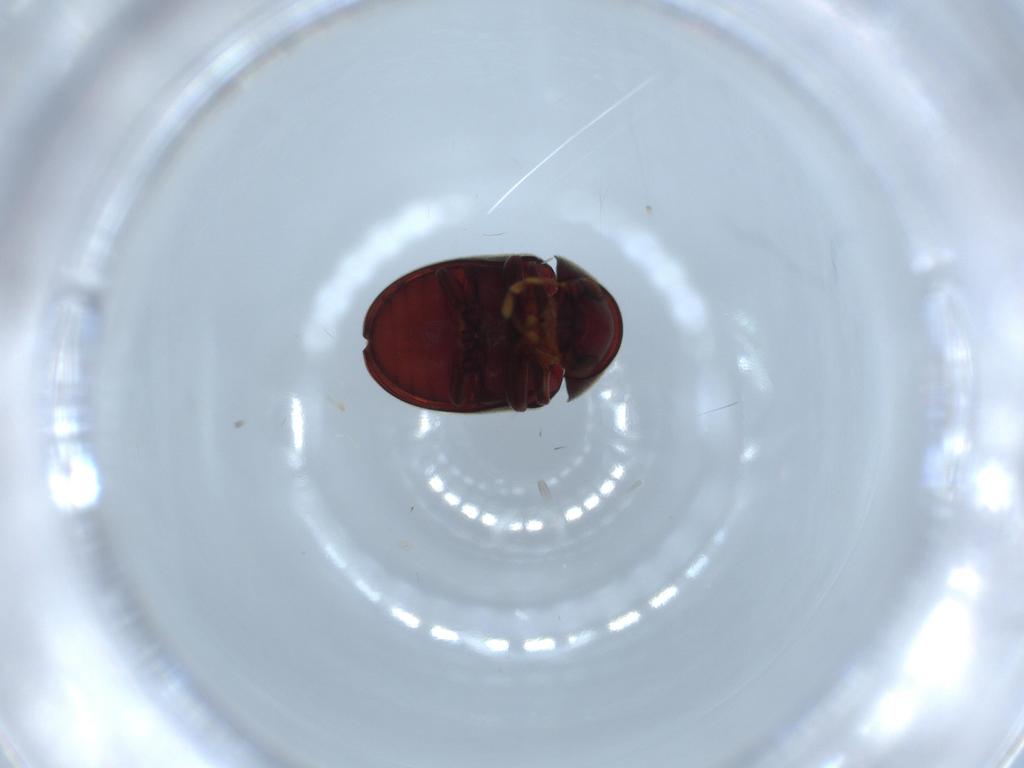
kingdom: Animalia
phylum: Arthropoda
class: Insecta
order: Coleoptera
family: Ptinidae
